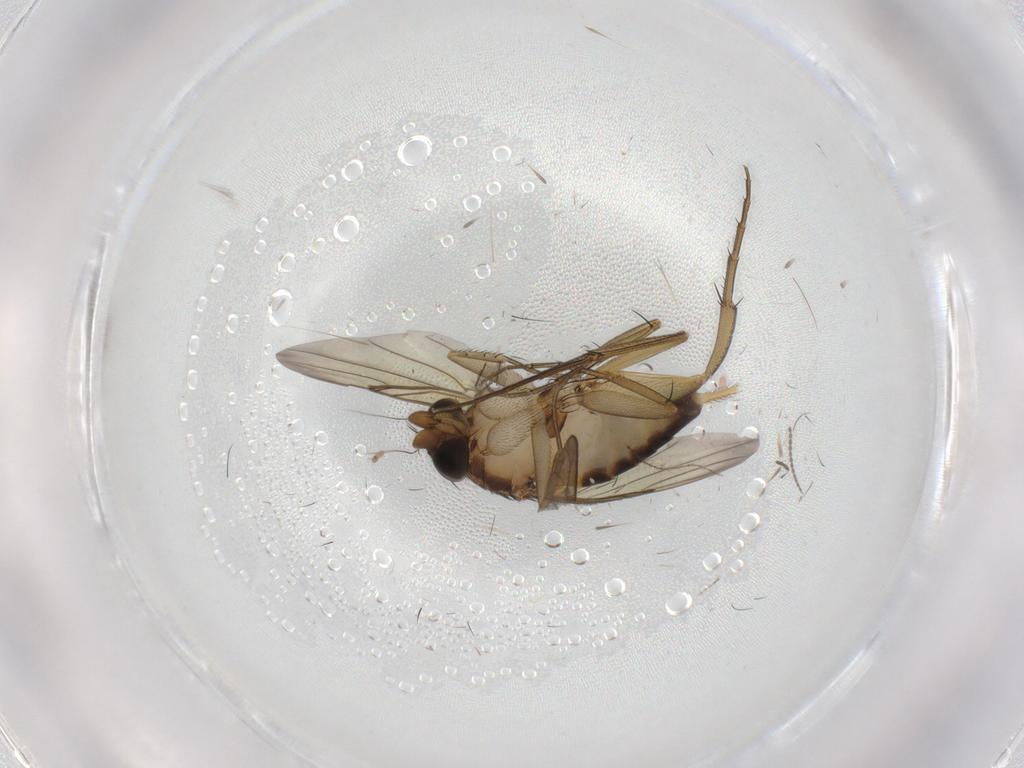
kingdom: Animalia
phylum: Arthropoda
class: Insecta
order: Diptera
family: Phoridae
